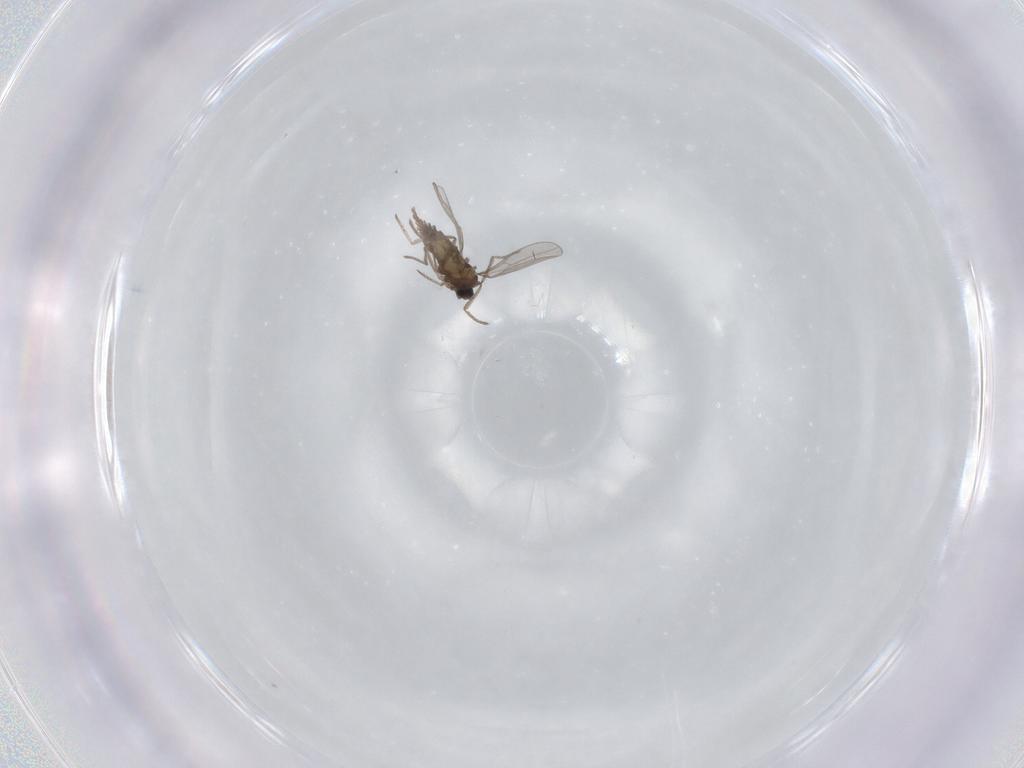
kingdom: Animalia
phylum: Arthropoda
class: Insecta
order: Diptera
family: Cecidomyiidae
